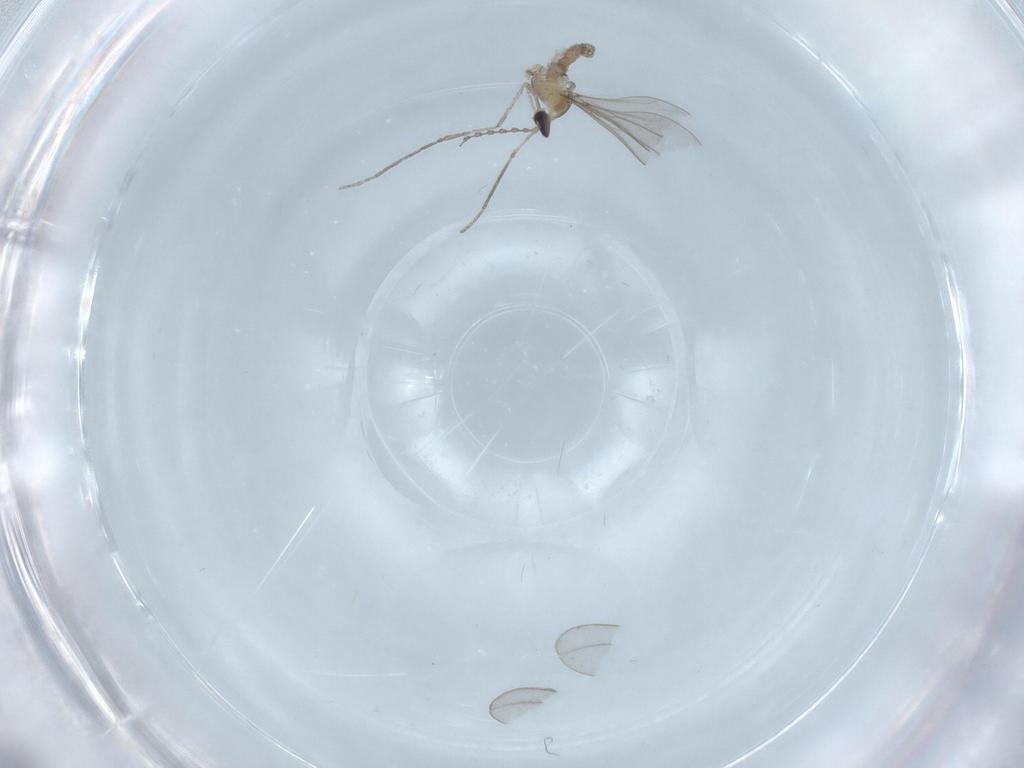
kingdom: Animalia
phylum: Arthropoda
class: Insecta
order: Diptera
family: Cecidomyiidae
